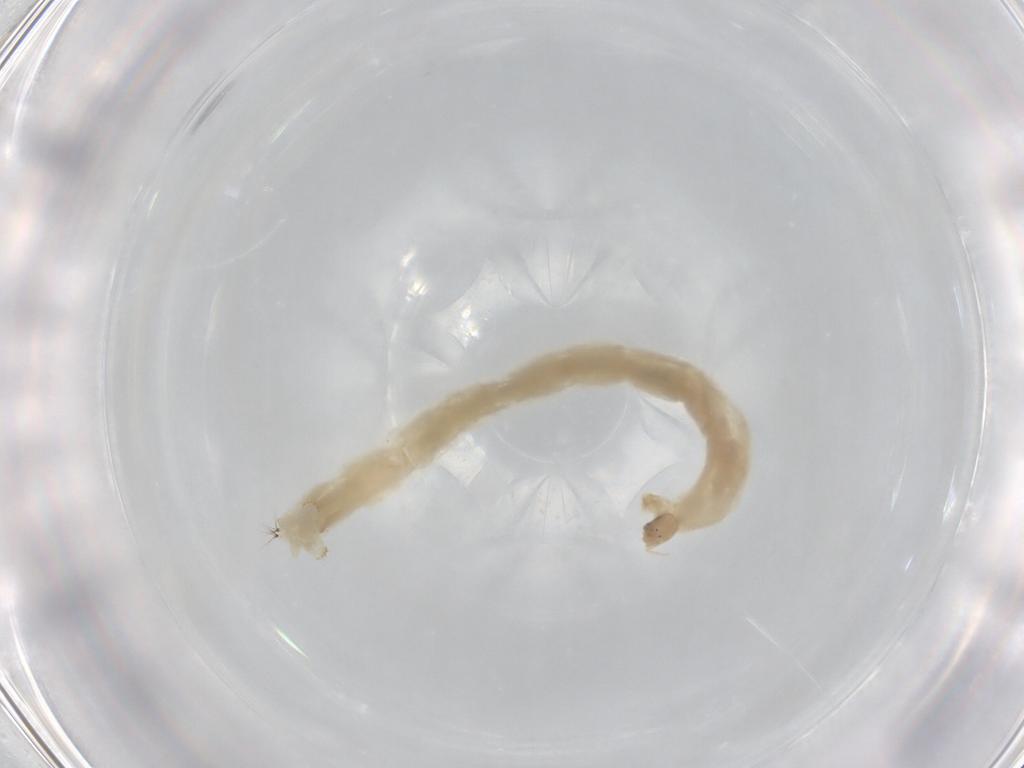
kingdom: Animalia
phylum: Arthropoda
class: Insecta
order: Diptera
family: Chironomidae
